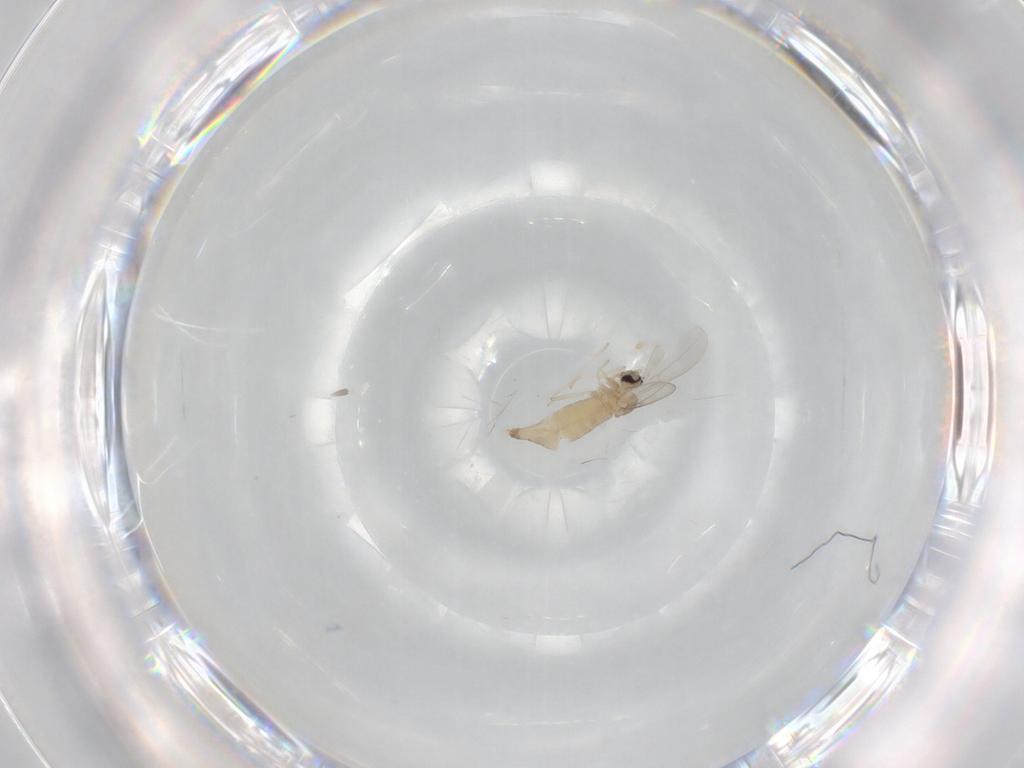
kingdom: Animalia
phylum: Arthropoda
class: Insecta
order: Diptera
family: Cecidomyiidae
